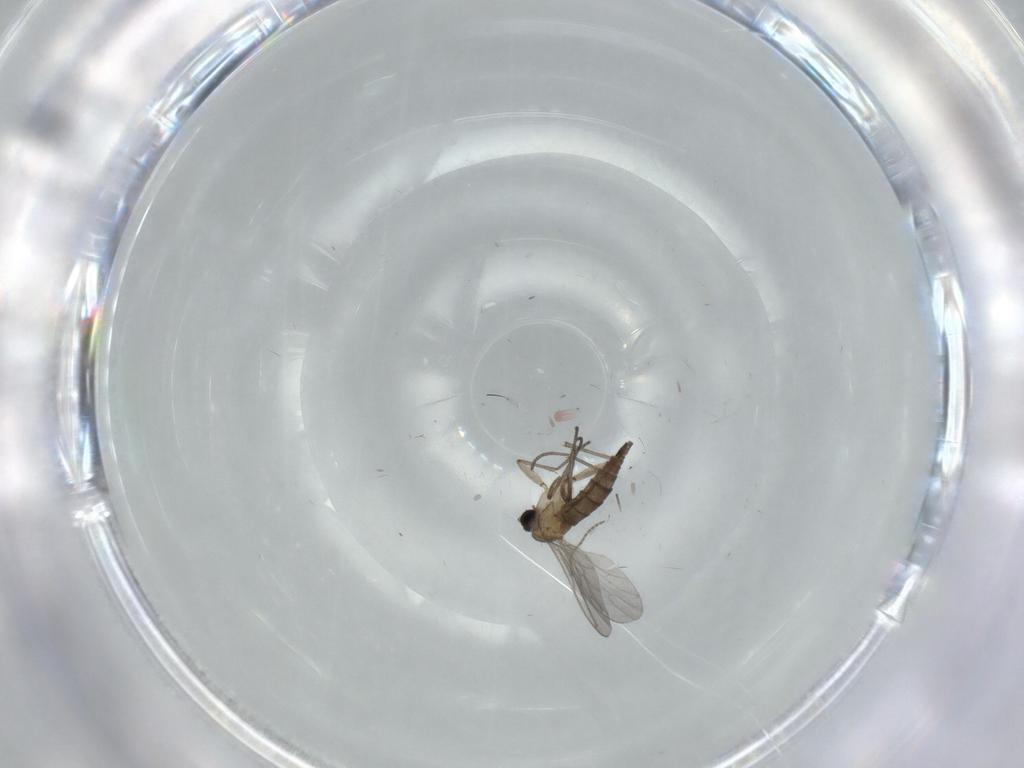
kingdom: Animalia
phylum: Arthropoda
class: Insecta
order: Diptera
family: Sciaridae
